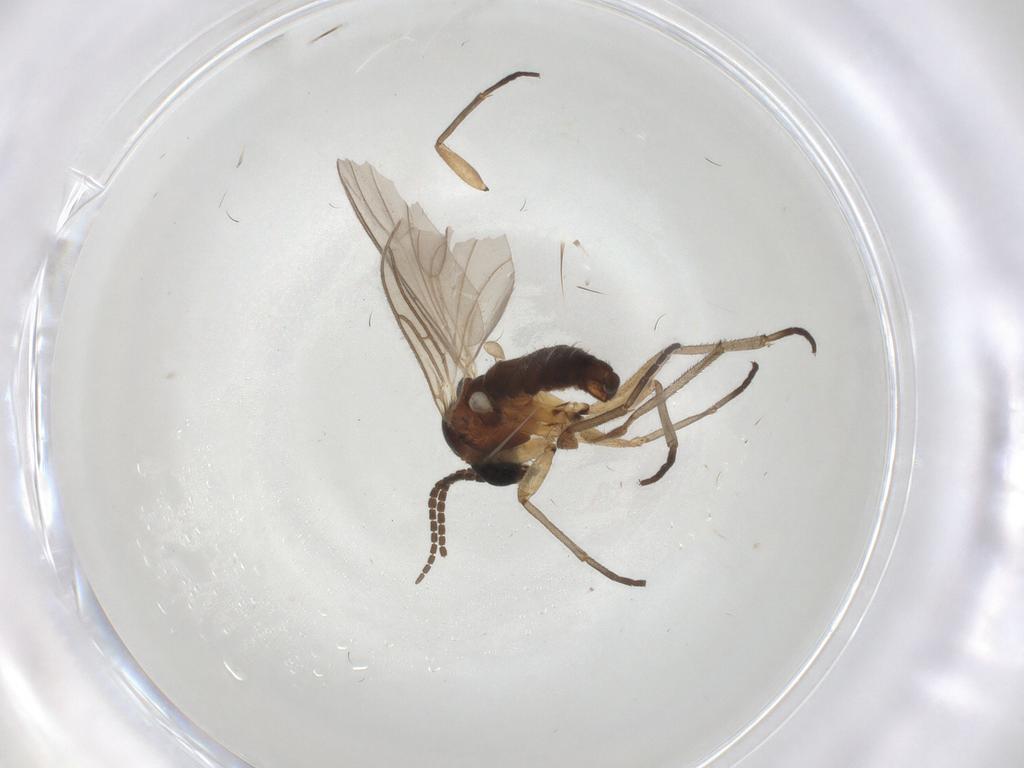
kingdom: Animalia
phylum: Arthropoda
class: Insecta
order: Diptera
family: Sciaridae
